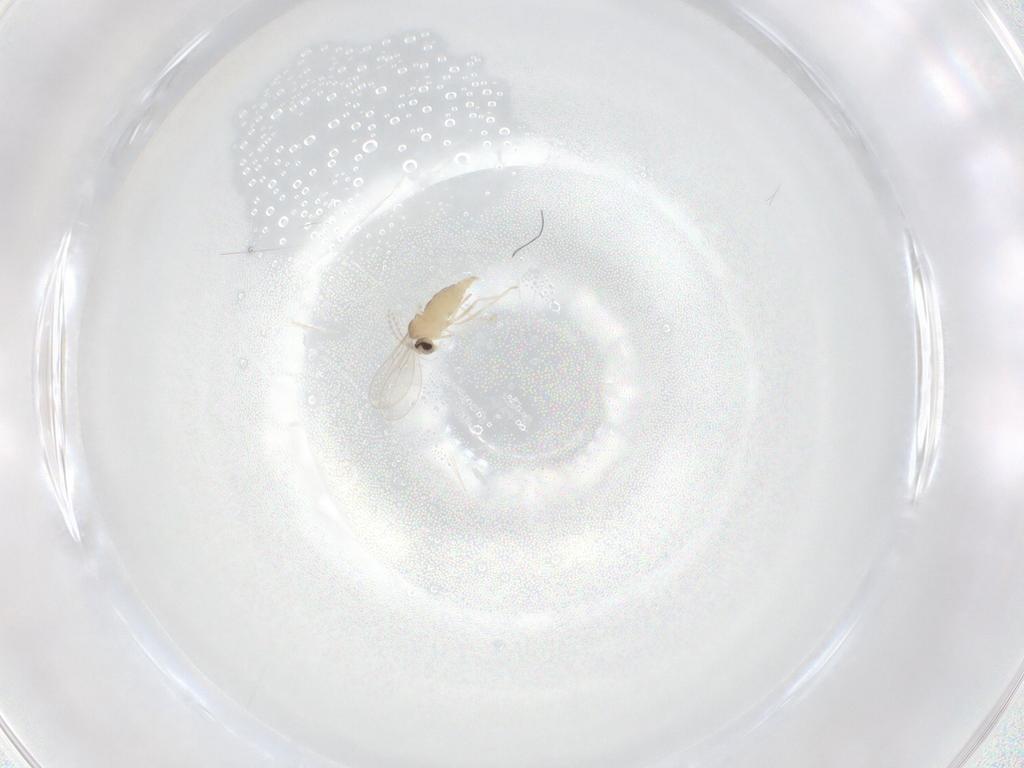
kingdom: Animalia
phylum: Arthropoda
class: Insecta
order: Diptera
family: Cecidomyiidae
